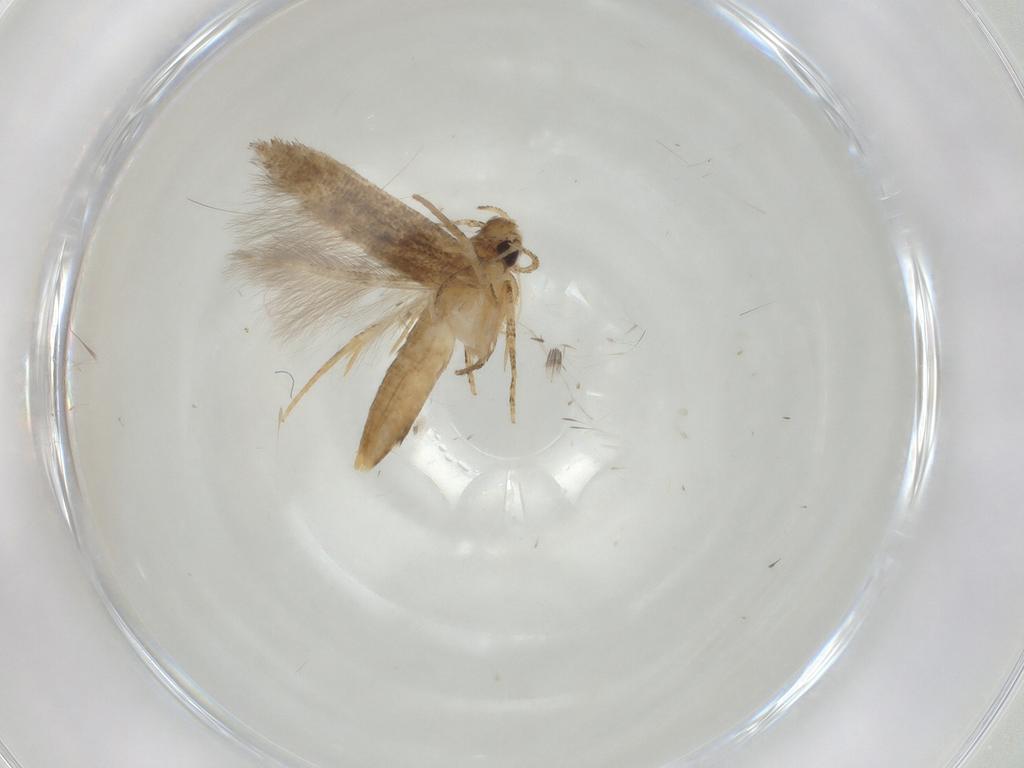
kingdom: Animalia
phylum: Arthropoda
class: Insecta
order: Lepidoptera
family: Cosmopterigidae
